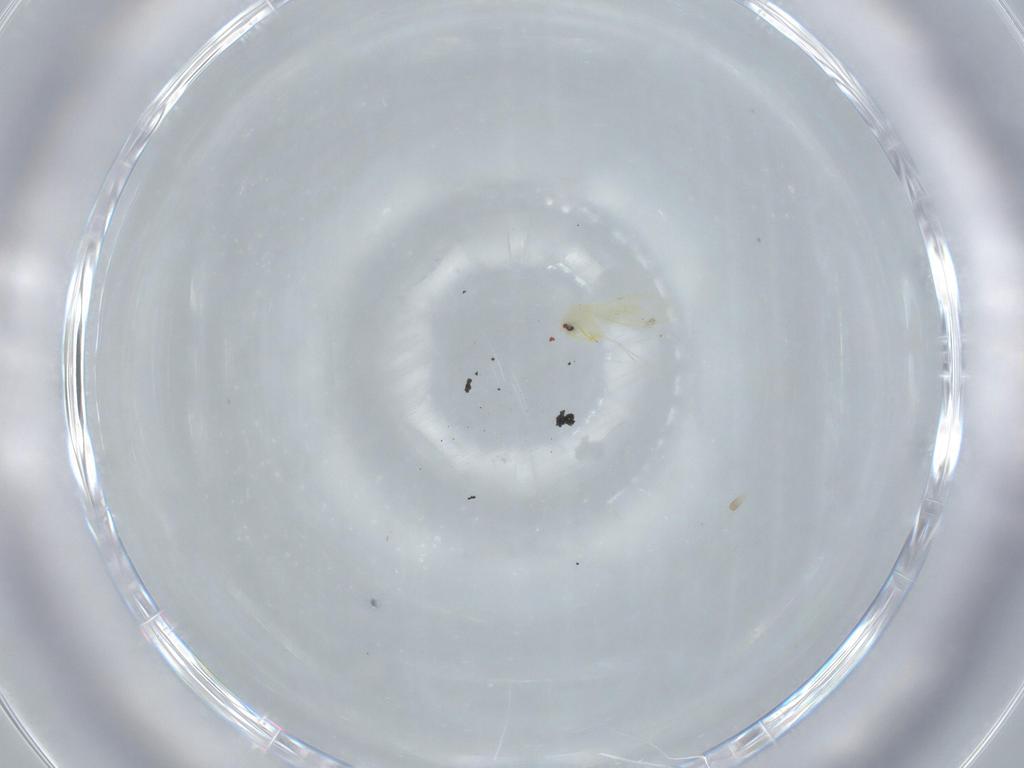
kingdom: Animalia
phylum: Arthropoda
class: Insecta
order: Hemiptera
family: Aleyrodidae
